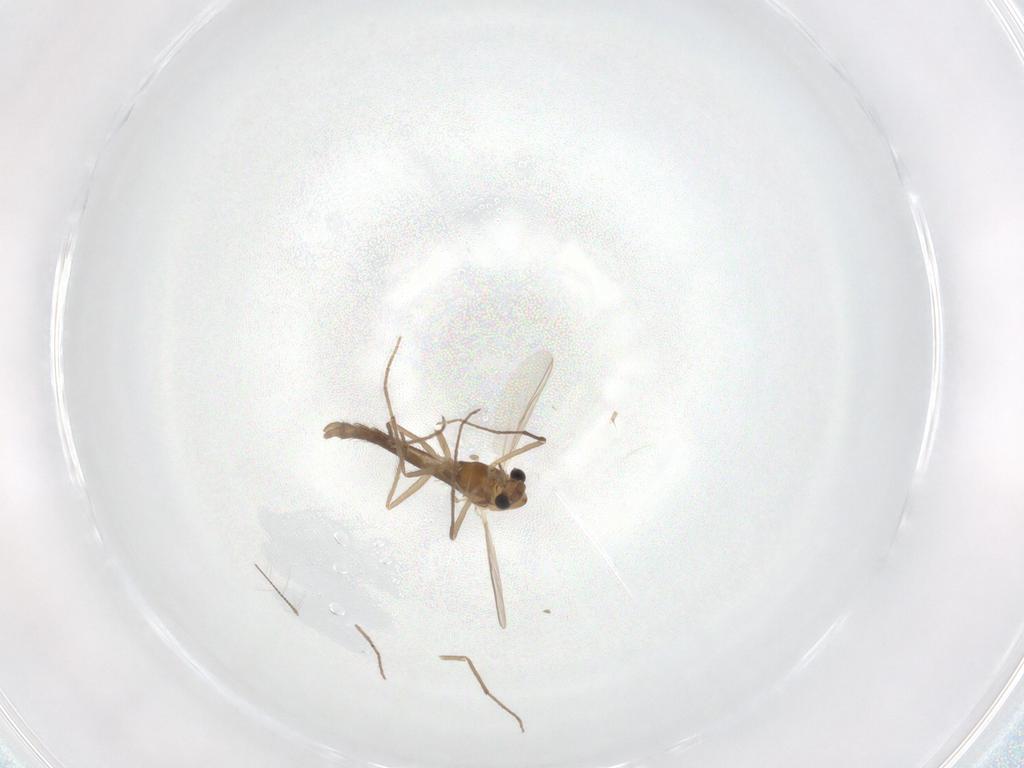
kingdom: Animalia
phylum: Arthropoda
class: Insecta
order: Diptera
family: Chironomidae
